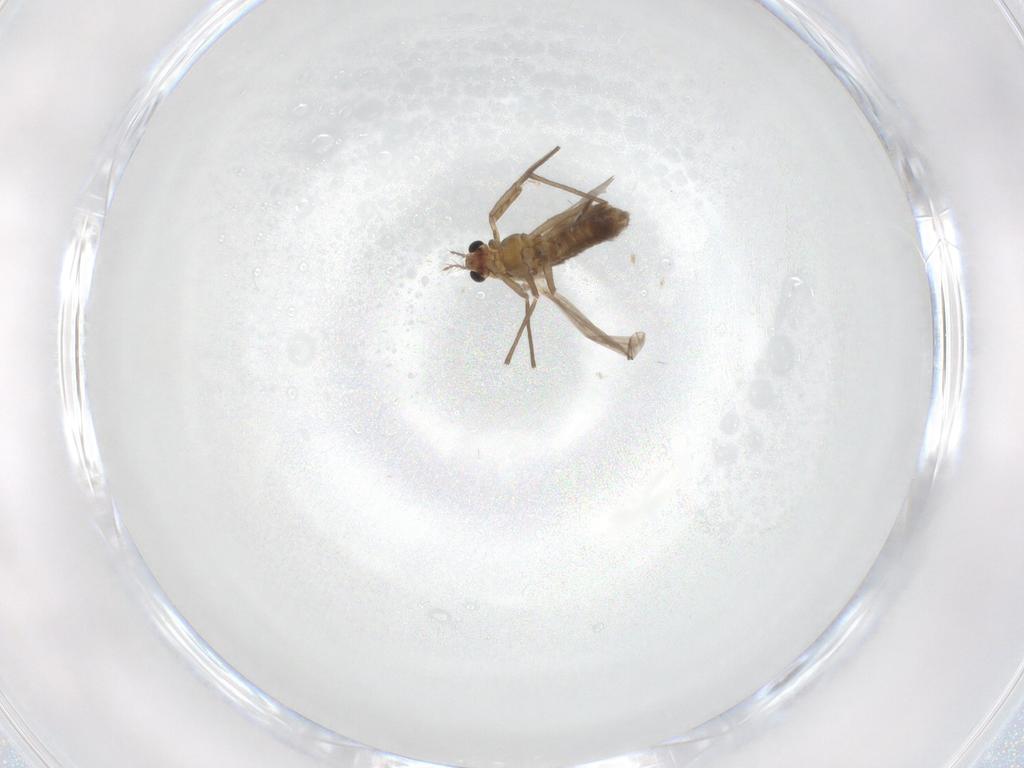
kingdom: Animalia
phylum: Arthropoda
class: Insecta
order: Diptera
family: Chironomidae
